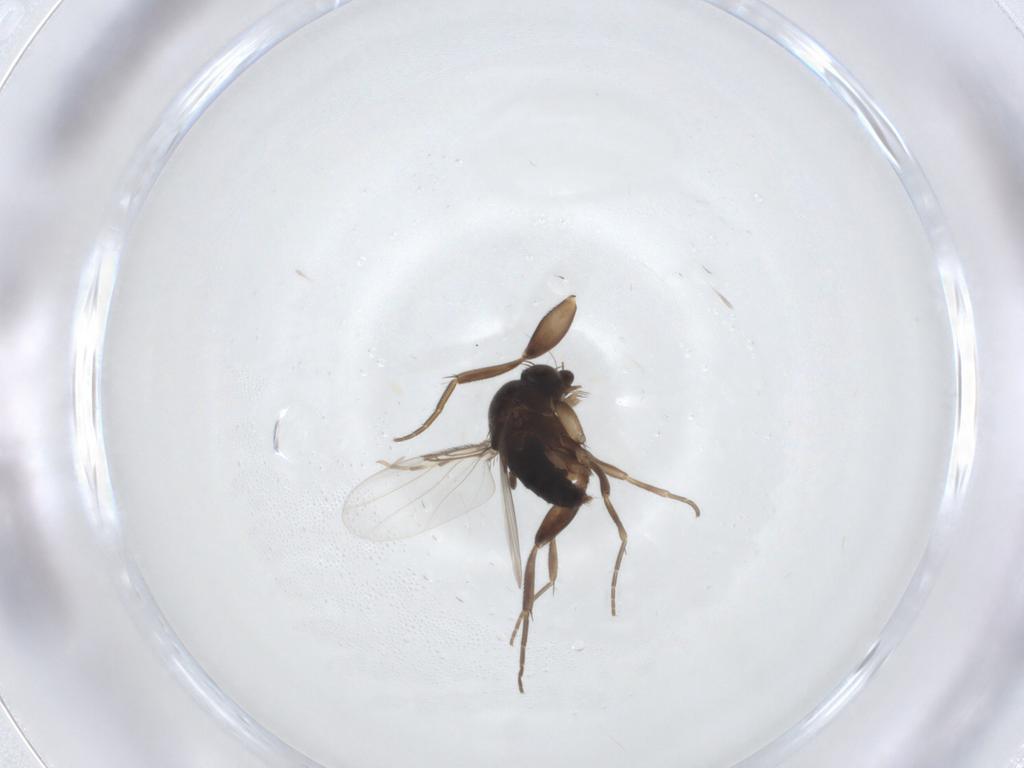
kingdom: Animalia
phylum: Arthropoda
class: Insecta
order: Diptera
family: Phoridae
